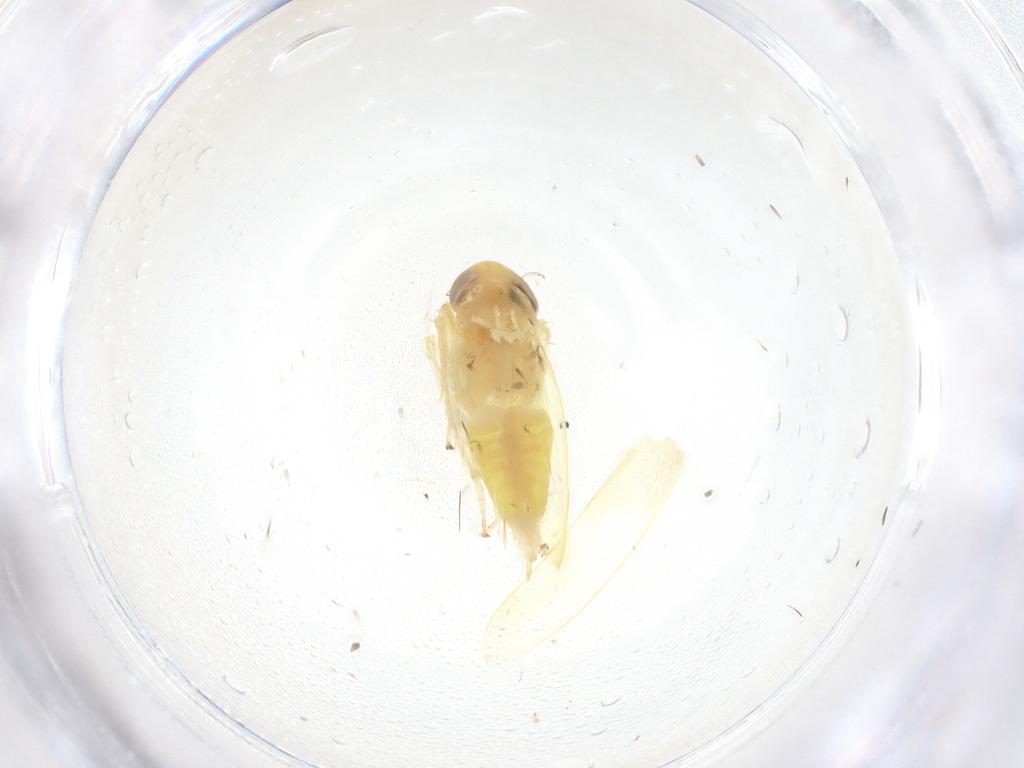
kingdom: Animalia
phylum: Arthropoda
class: Insecta
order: Hemiptera
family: Cicadellidae
